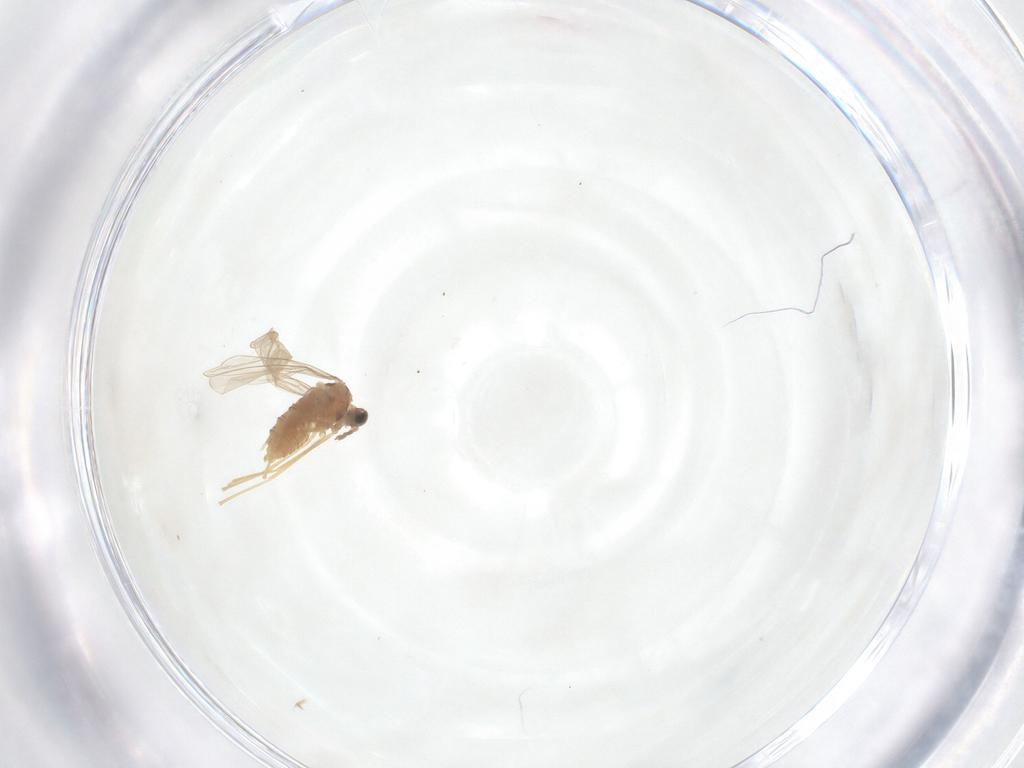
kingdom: Animalia
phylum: Arthropoda
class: Insecta
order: Diptera
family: Cecidomyiidae
